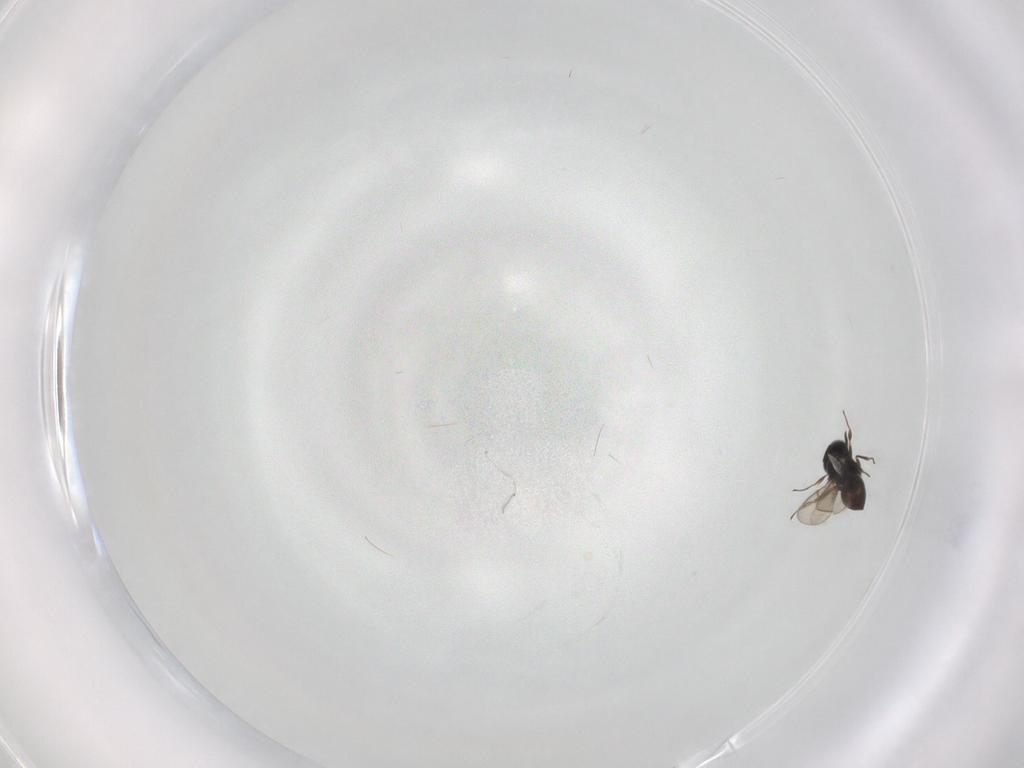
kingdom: Animalia
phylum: Arthropoda
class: Insecta
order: Hymenoptera
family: Scelionidae
